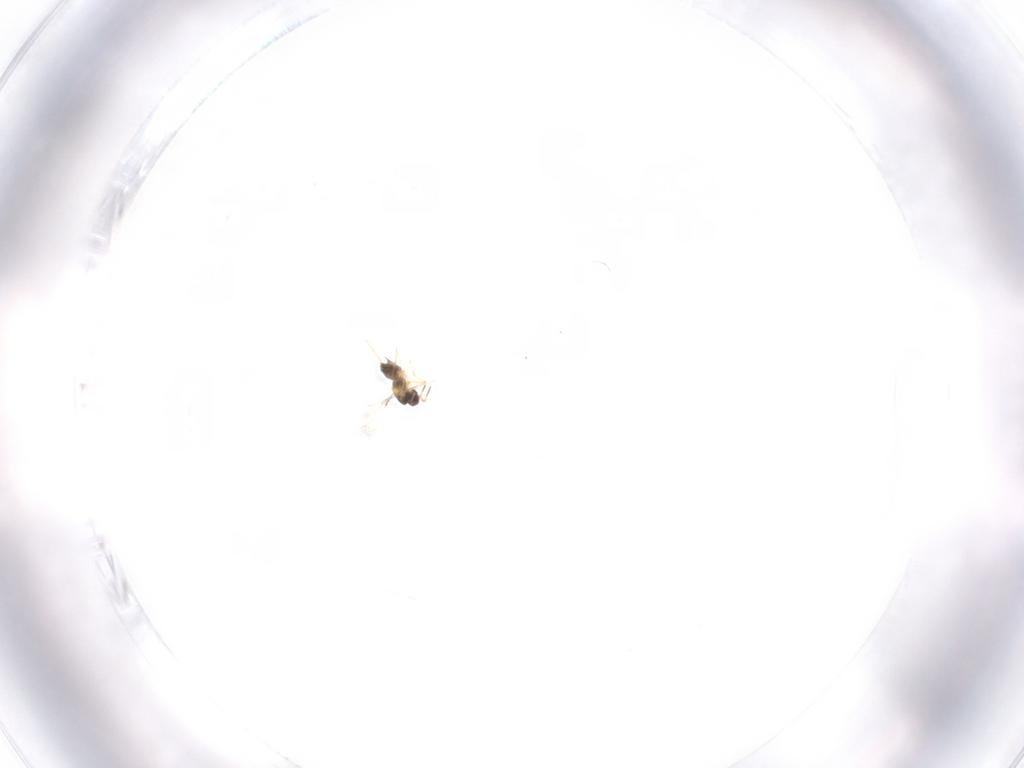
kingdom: Animalia
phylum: Arthropoda
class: Insecta
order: Hymenoptera
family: Mymaridae
